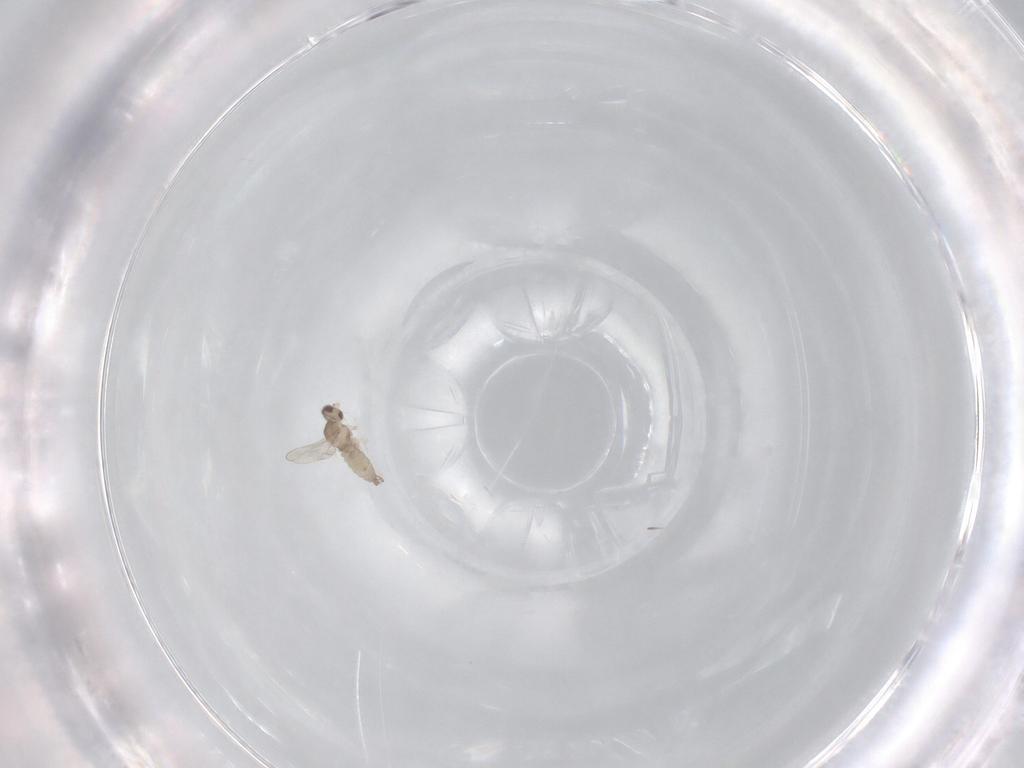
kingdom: Animalia
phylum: Arthropoda
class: Insecta
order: Diptera
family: Cecidomyiidae
